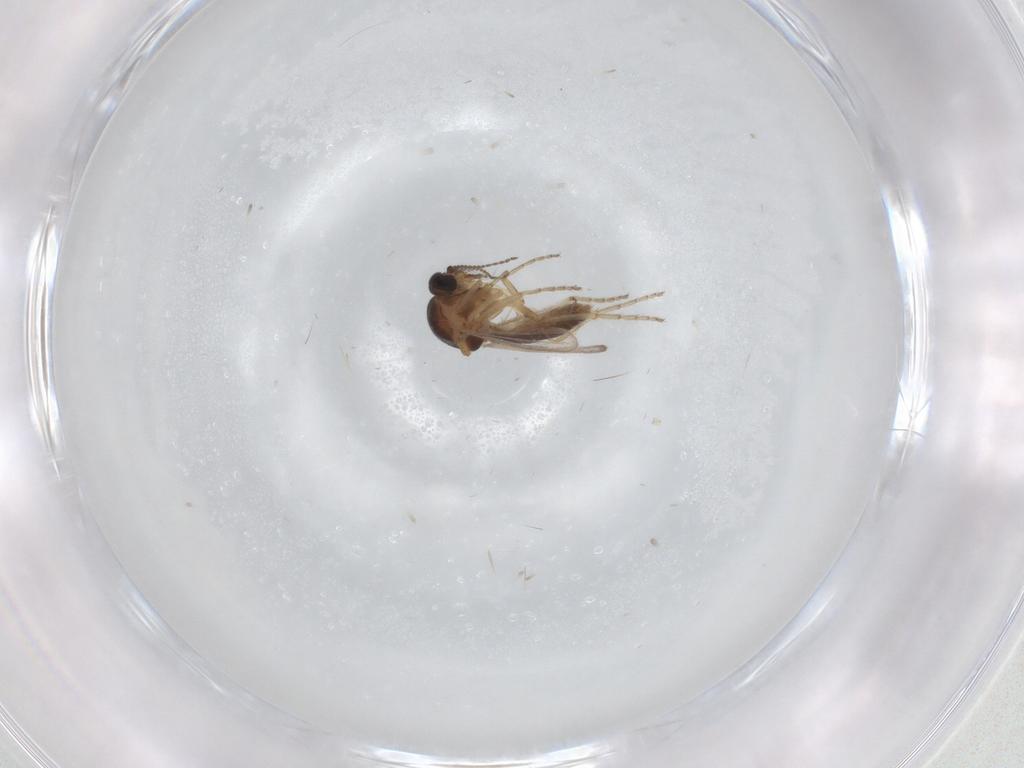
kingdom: Animalia
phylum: Arthropoda
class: Insecta
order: Diptera
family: Ceratopogonidae
